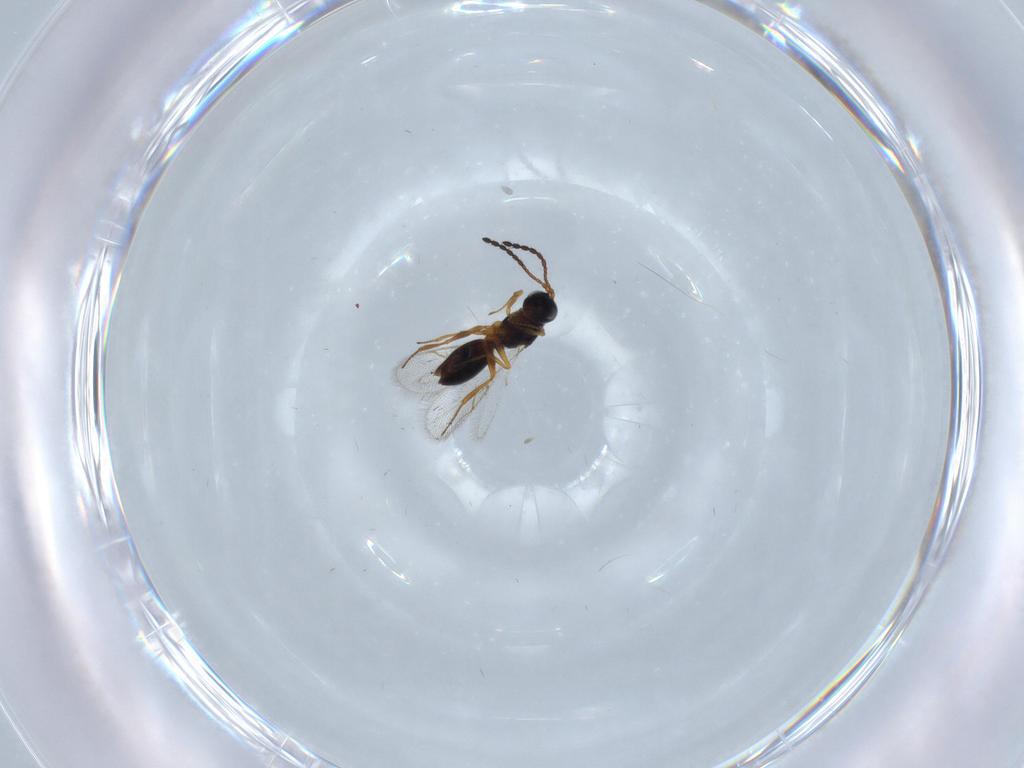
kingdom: Animalia
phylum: Arthropoda
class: Insecta
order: Hymenoptera
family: Figitidae
